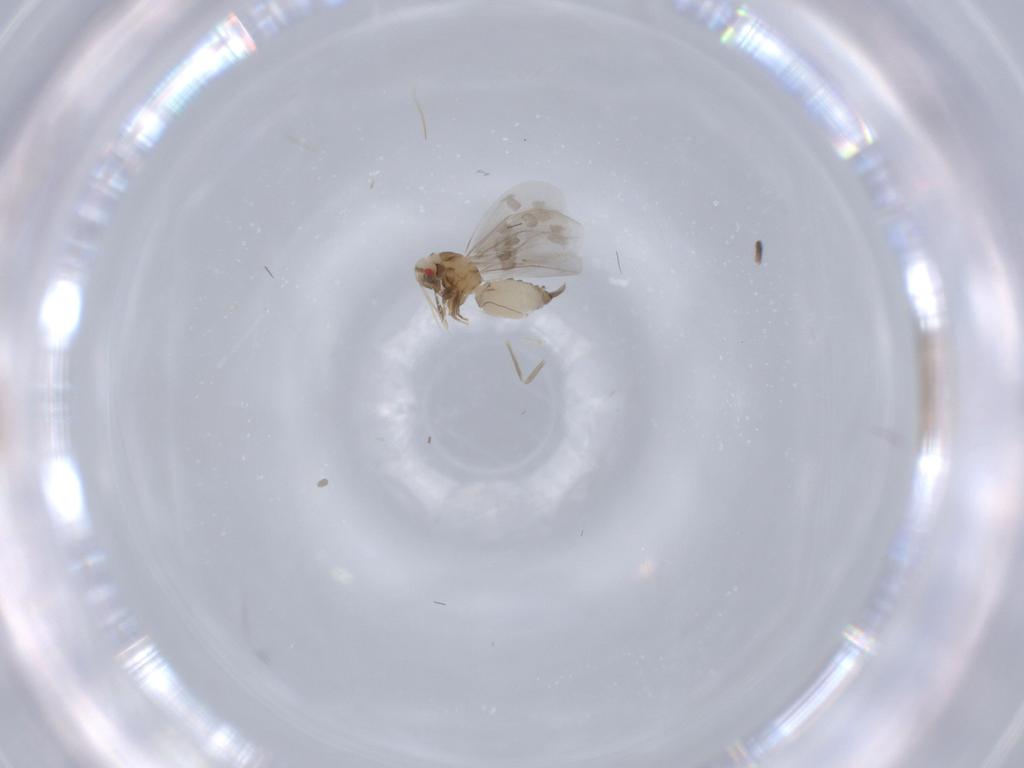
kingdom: Animalia
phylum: Arthropoda
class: Insecta
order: Hemiptera
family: Aleyrodidae
